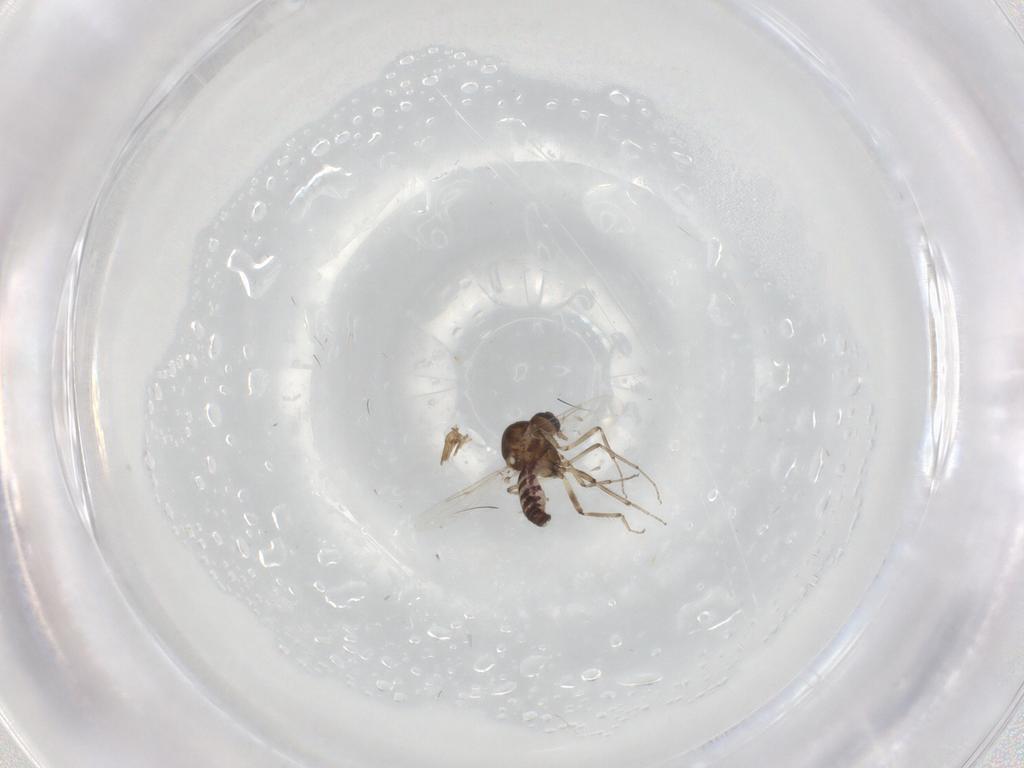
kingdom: Animalia
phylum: Arthropoda
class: Insecta
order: Diptera
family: Ceratopogonidae
